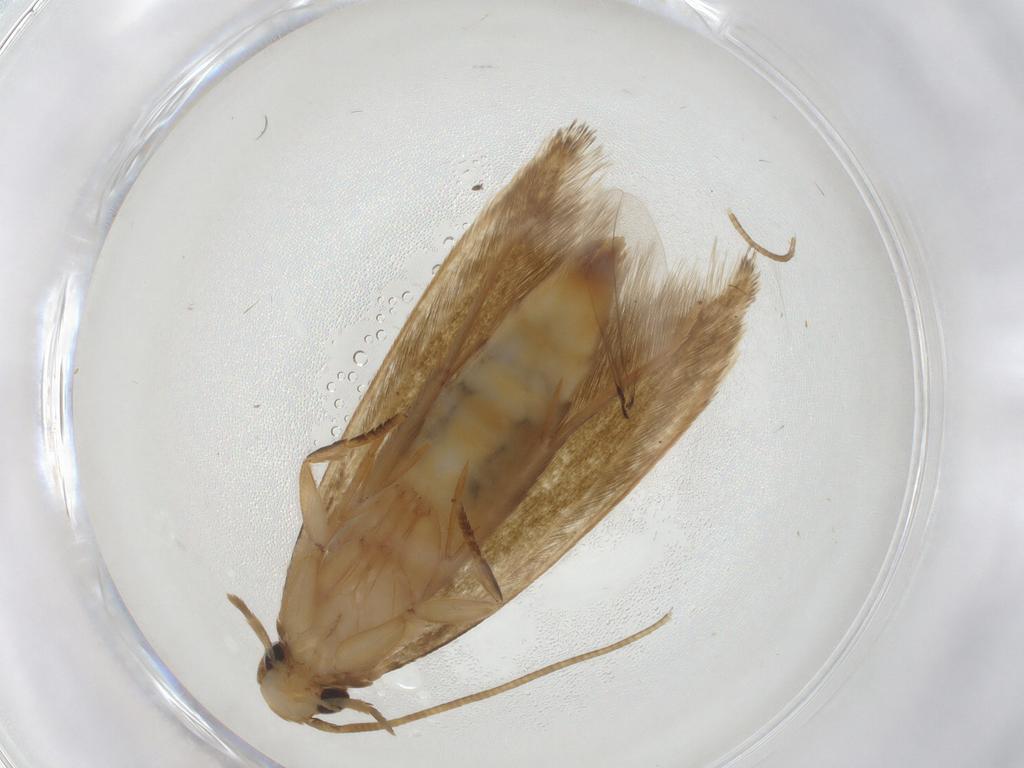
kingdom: Animalia
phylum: Arthropoda
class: Insecta
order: Lepidoptera
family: Tineidae
